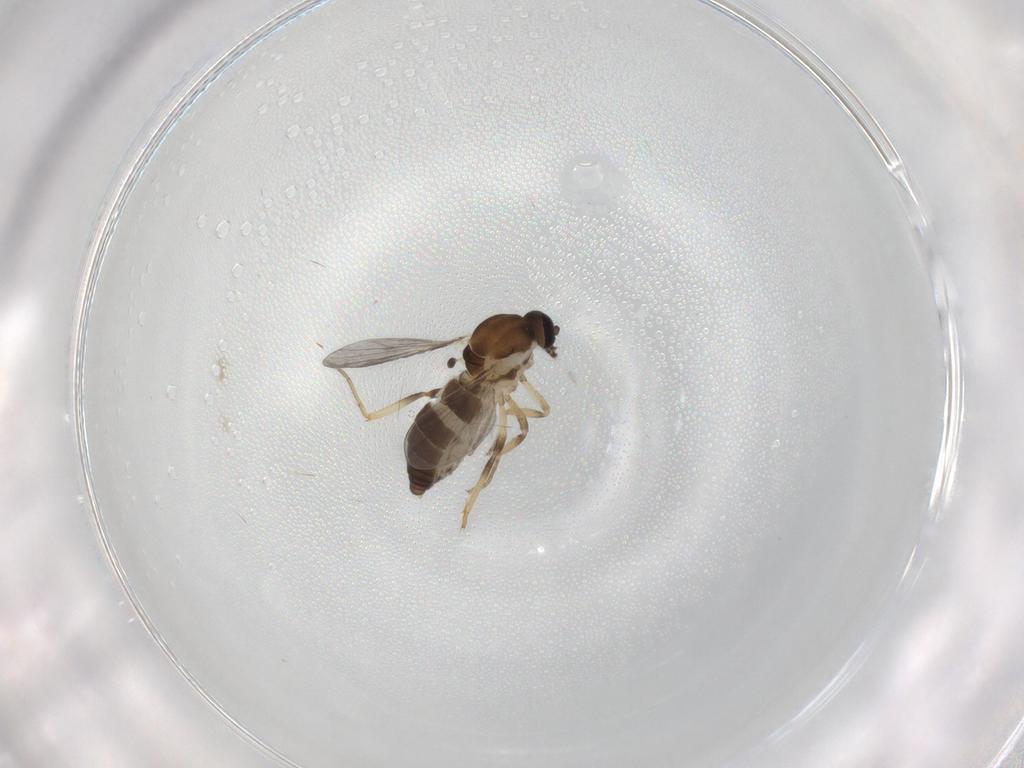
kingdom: Animalia
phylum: Arthropoda
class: Insecta
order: Diptera
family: Ceratopogonidae
